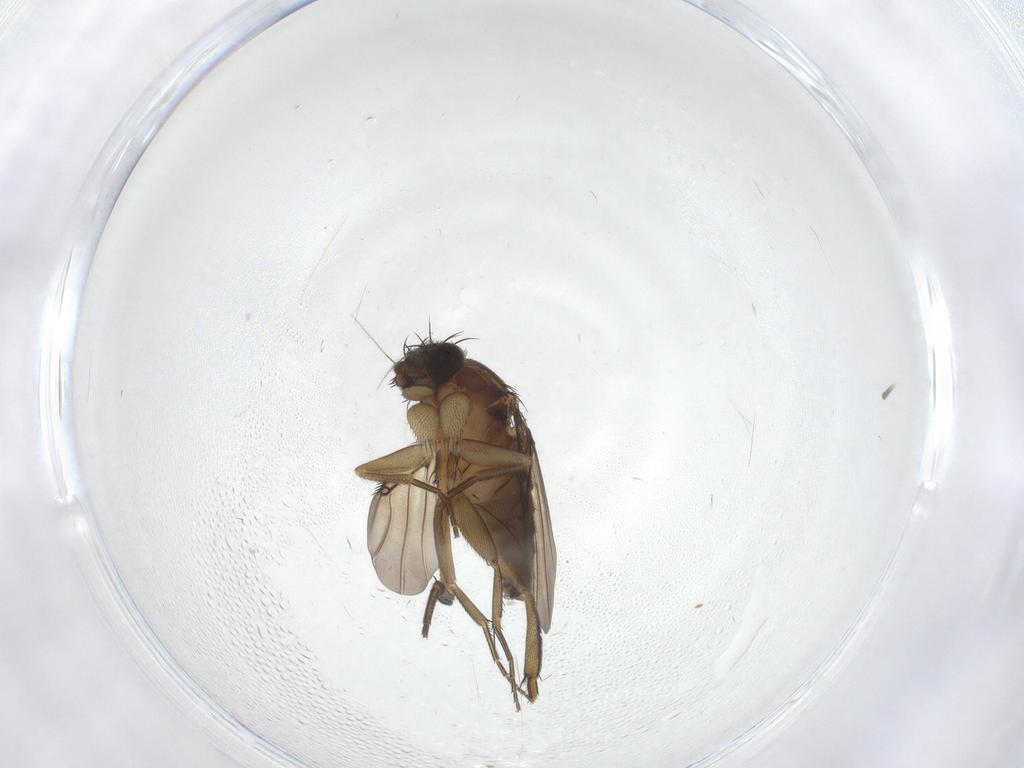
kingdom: Animalia
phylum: Arthropoda
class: Insecta
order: Diptera
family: Phoridae
